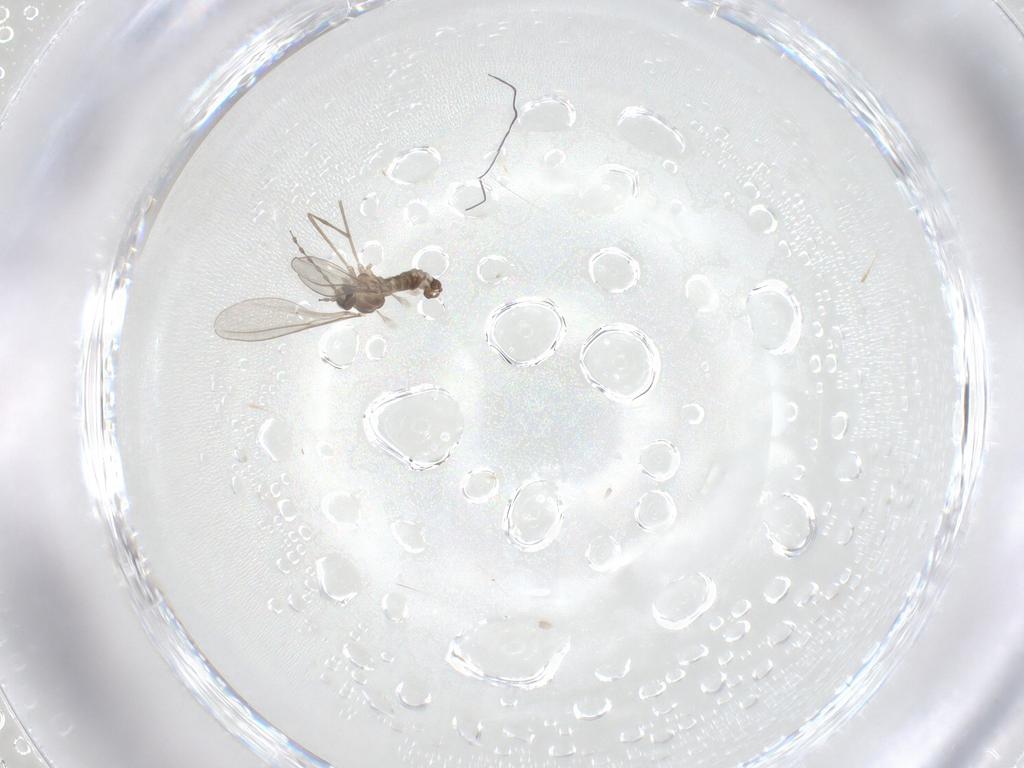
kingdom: Animalia
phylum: Arthropoda
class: Insecta
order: Diptera
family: Cecidomyiidae
